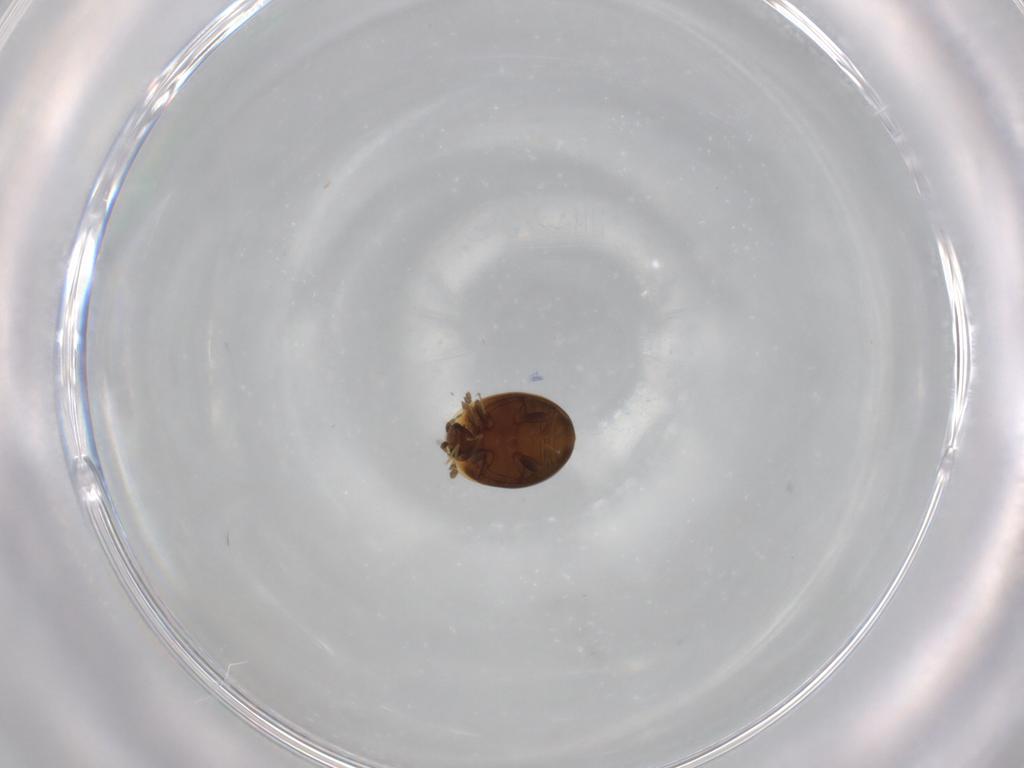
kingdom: Animalia
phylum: Arthropoda
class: Insecta
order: Coleoptera
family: Corylophidae
